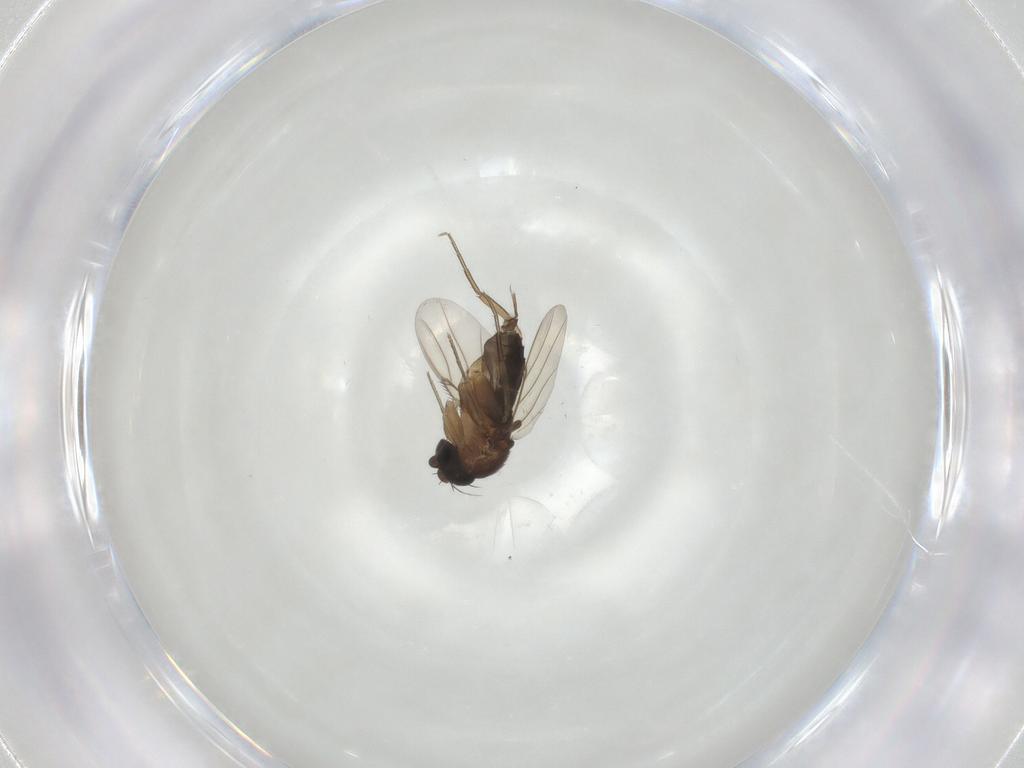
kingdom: Animalia
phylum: Arthropoda
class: Insecta
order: Diptera
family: Phoridae
